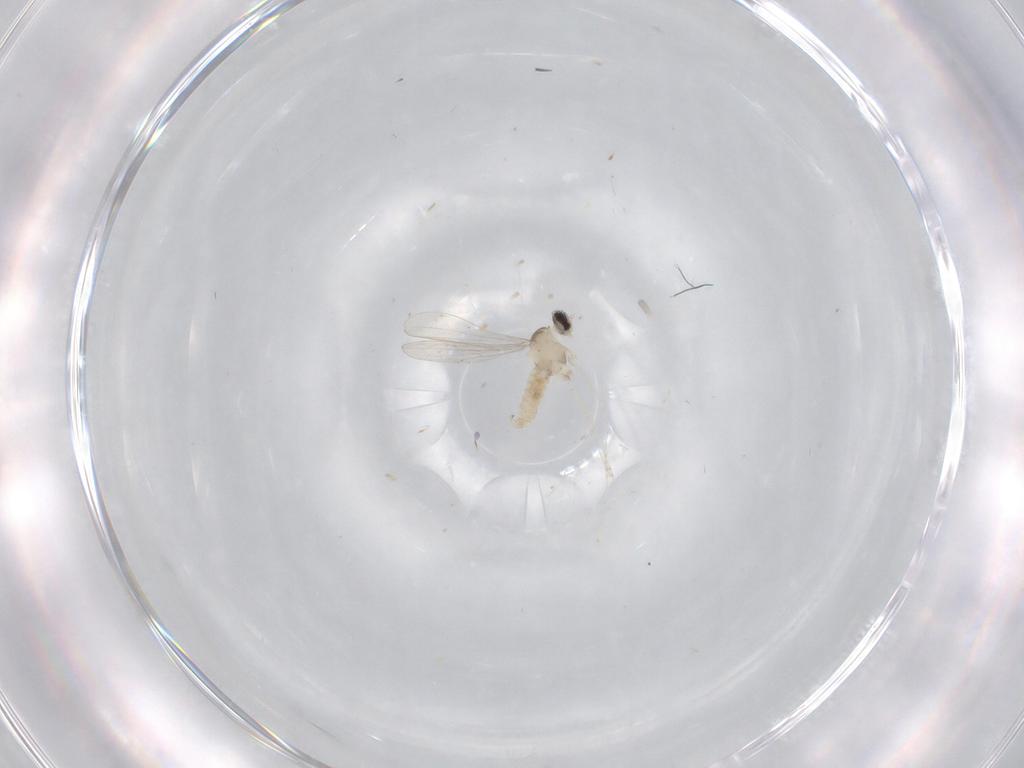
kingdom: Animalia
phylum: Arthropoda
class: Insecta
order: Diptera
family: Cecidomyiidae
